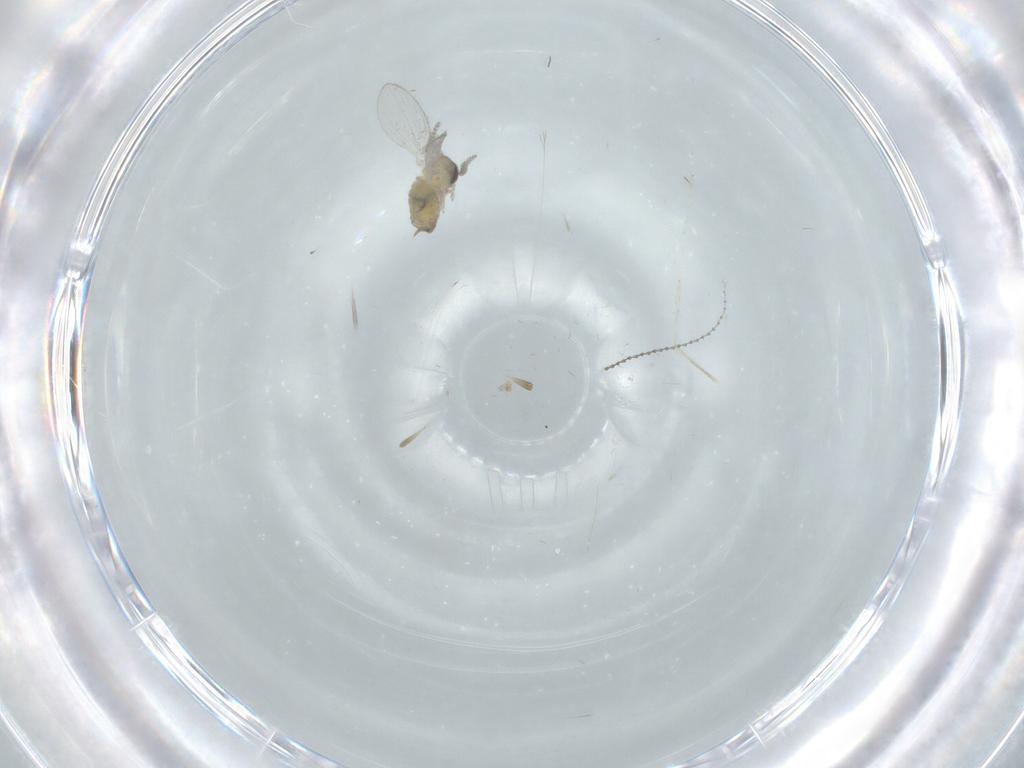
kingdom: Animalia
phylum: Arthropoda
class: Insecta
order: Diptera
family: Psychodidae
